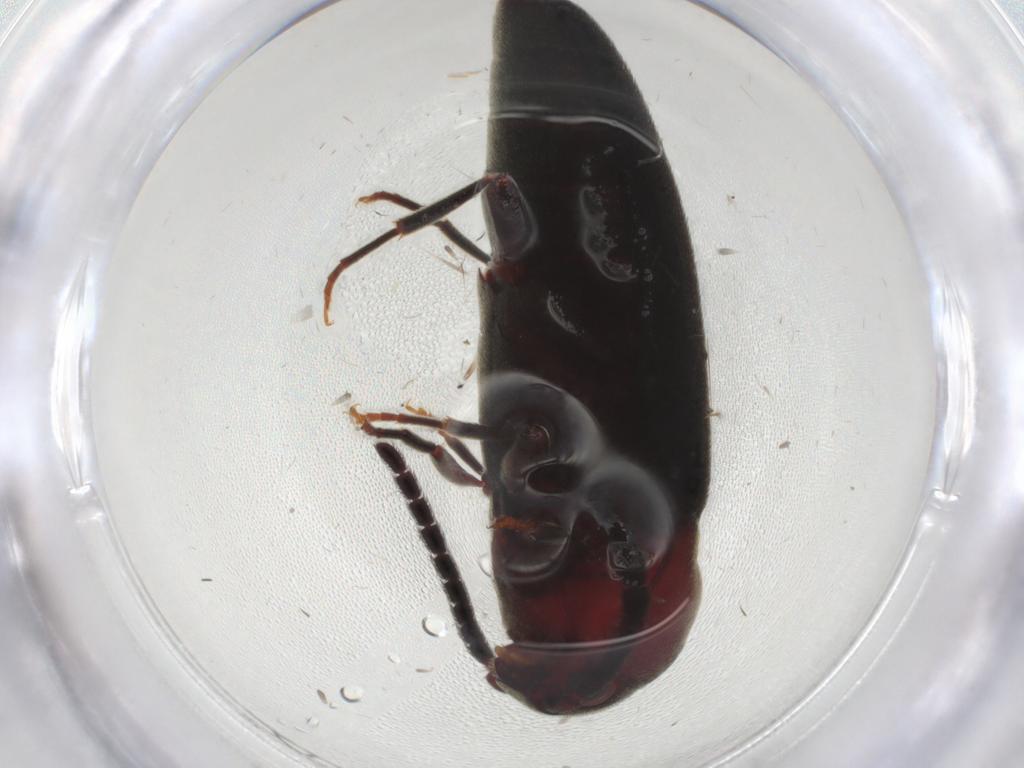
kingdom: Animalia
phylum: Arthropoda
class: Insecta
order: Coleoptera
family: Eucnemidae
